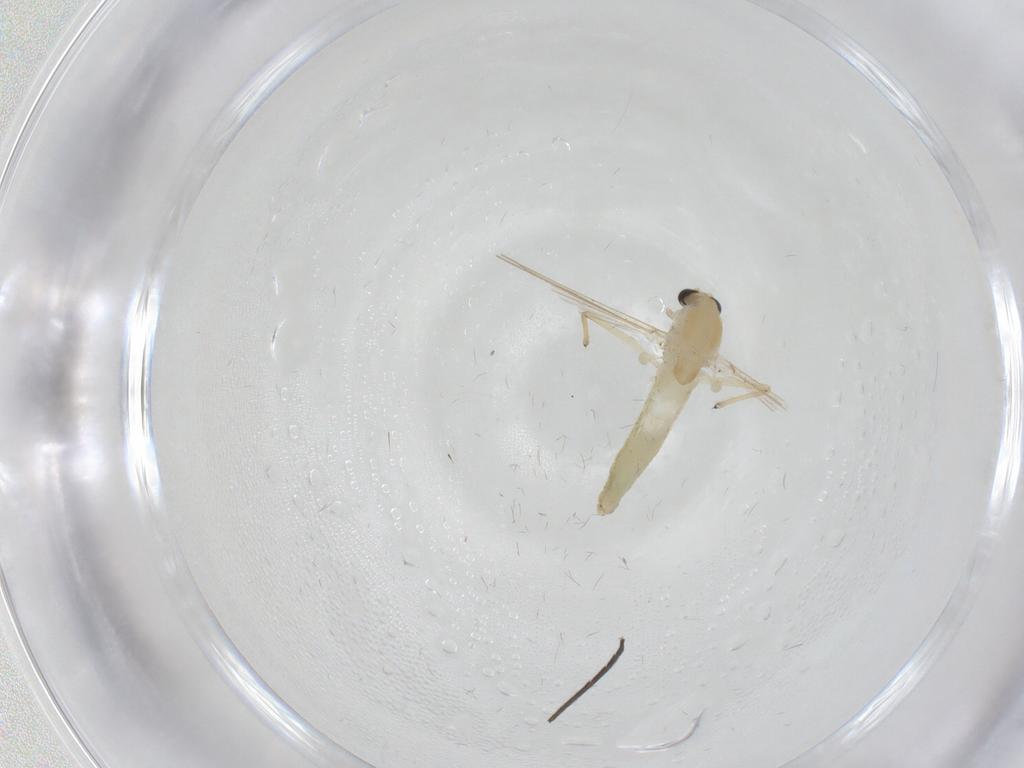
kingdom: Animalia
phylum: Arthropoda
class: Insecta
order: Diptera
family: Chironomidae
